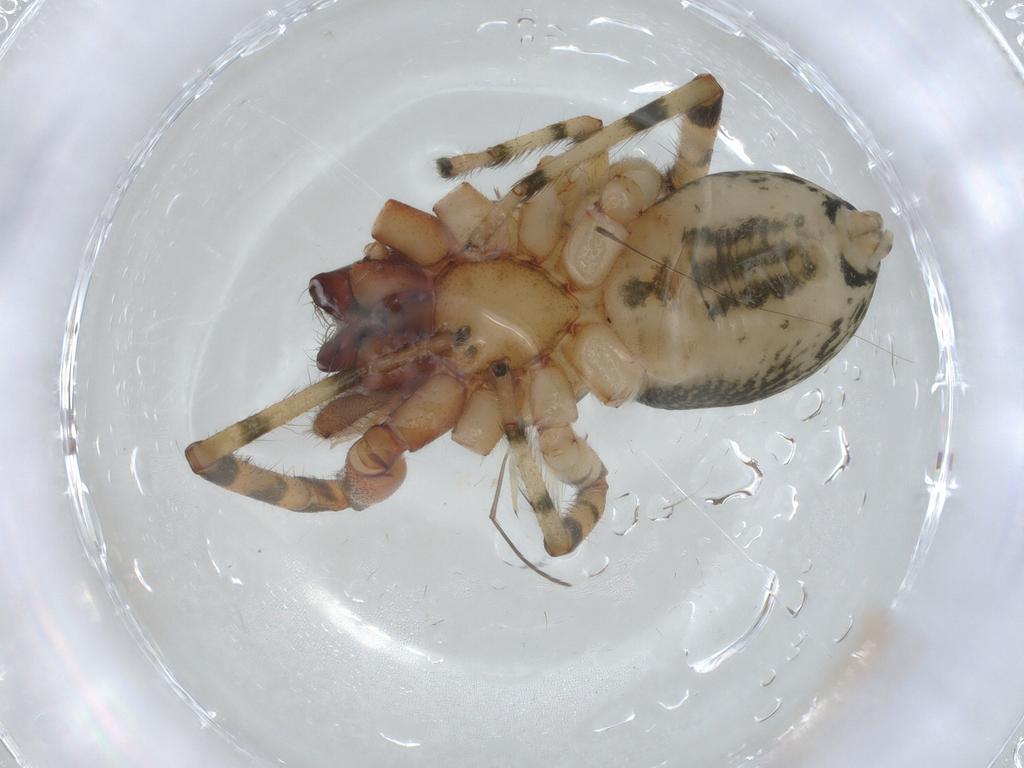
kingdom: Animalia
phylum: Arthropoda
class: Arachnida
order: Araneae
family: Trachelidae
